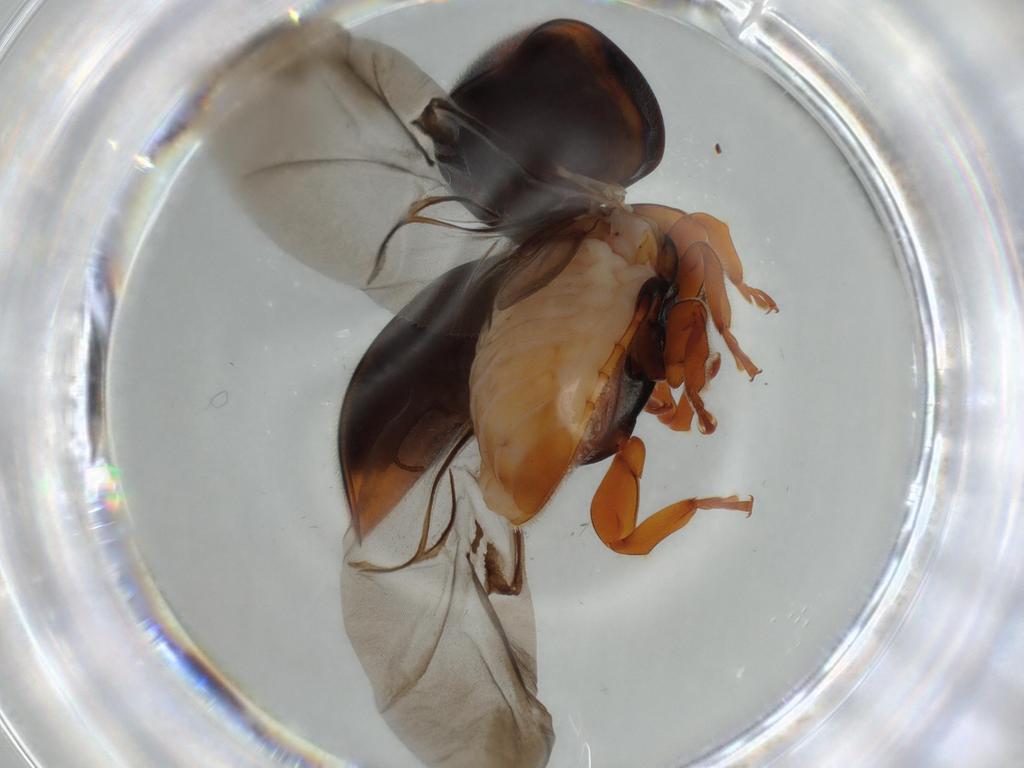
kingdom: Animalia
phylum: Arthropoda
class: Insecta
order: Coleoptera
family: Coccinellidae
